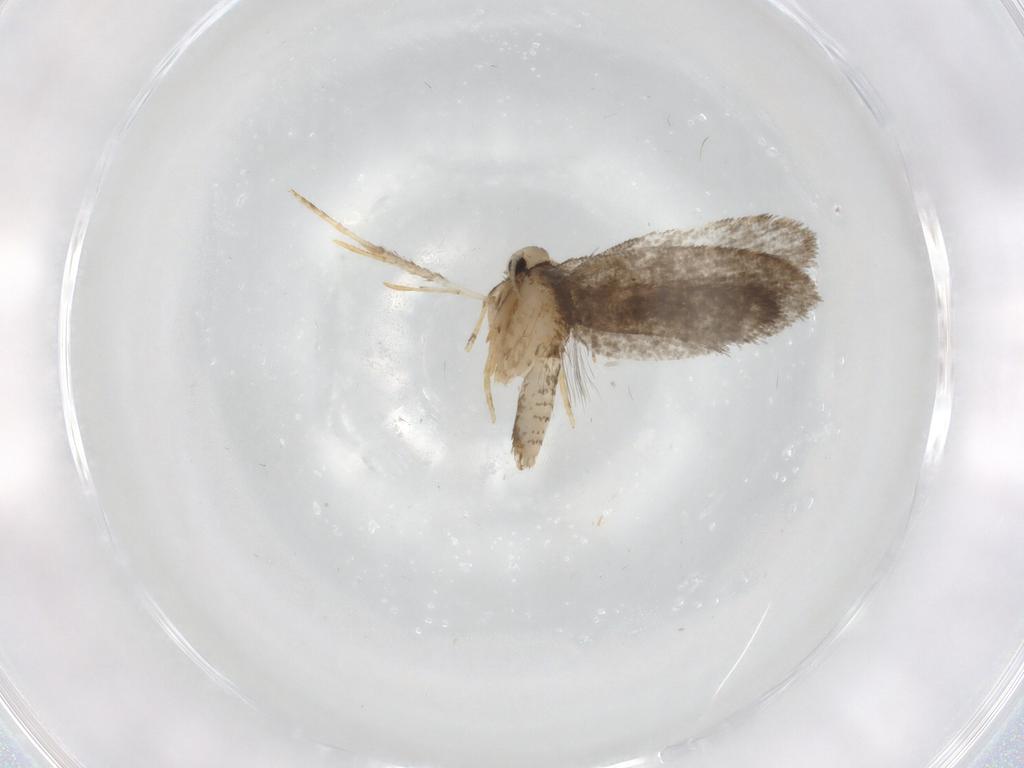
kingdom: Animalia
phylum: Arthropoda
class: Insecta
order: Lepidoptera
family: Psychidae
